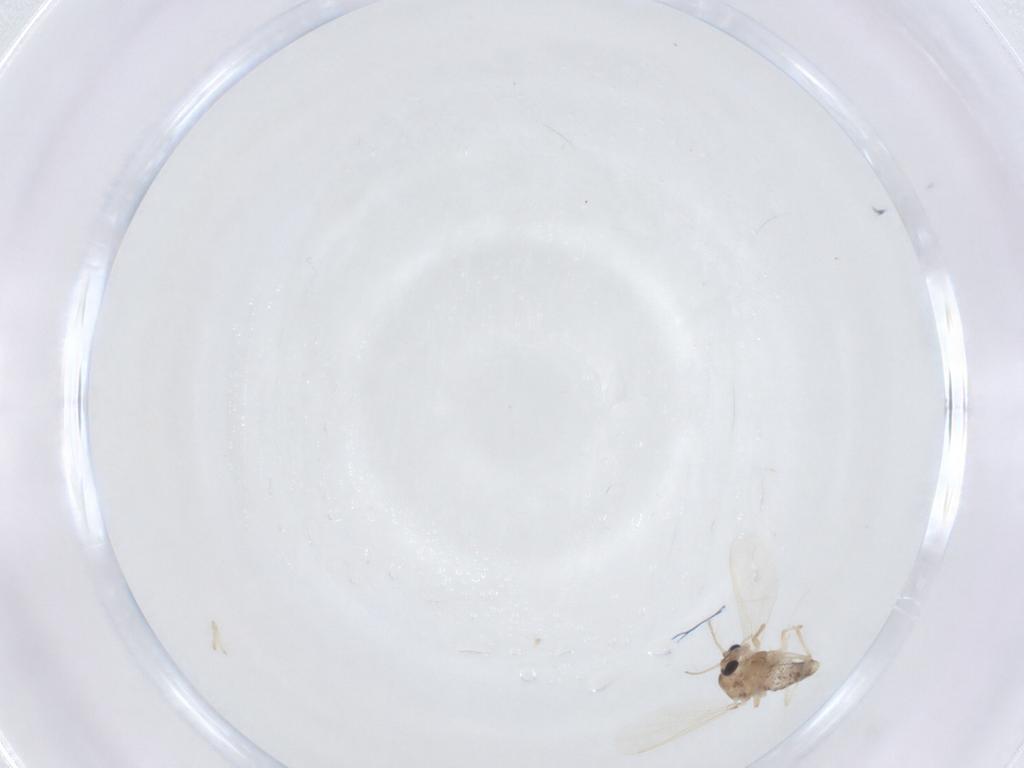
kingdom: Animalia
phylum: Arthropoda
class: Insecta
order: Diptera
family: Chironomidae
